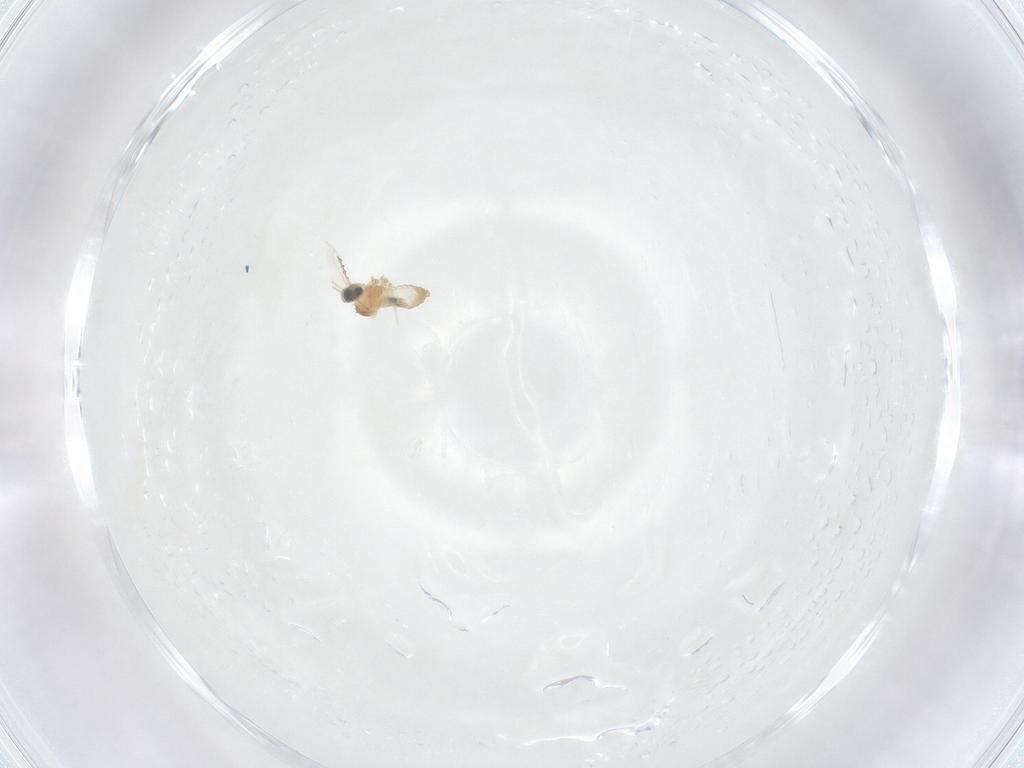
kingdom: Animalia
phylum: Arthropoda
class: Insecta
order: Diptera
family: Cecidomyiidae
